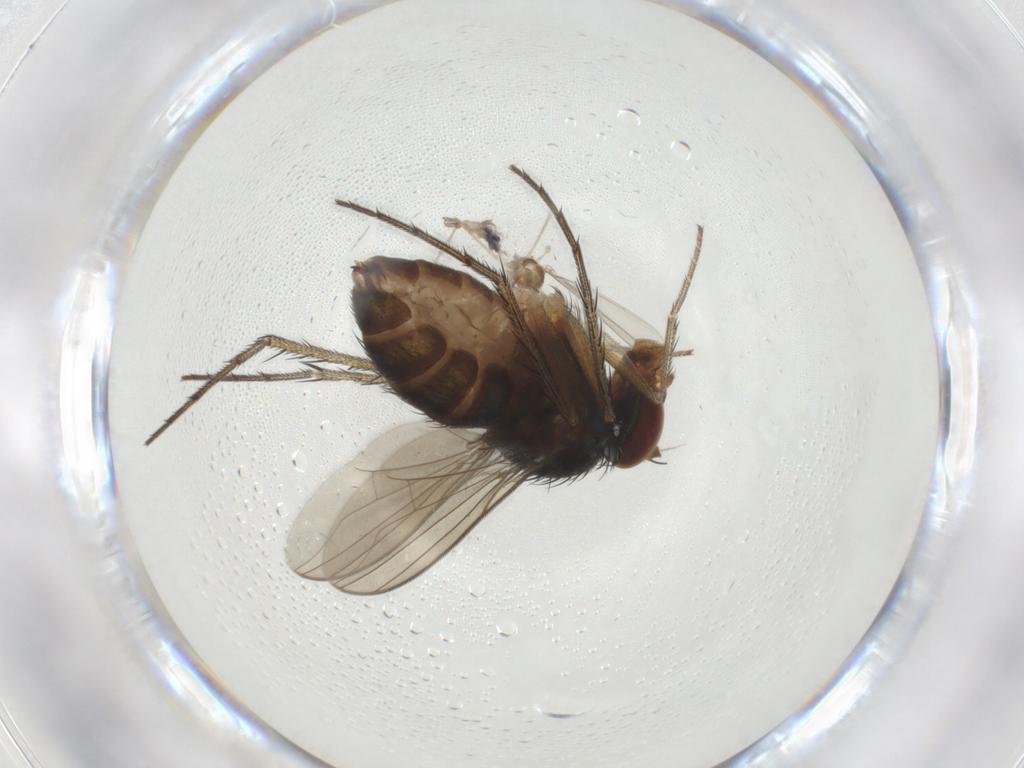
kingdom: Animalia
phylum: Arthropoda
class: Insecta
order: Diptera
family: Dolichopodidae
